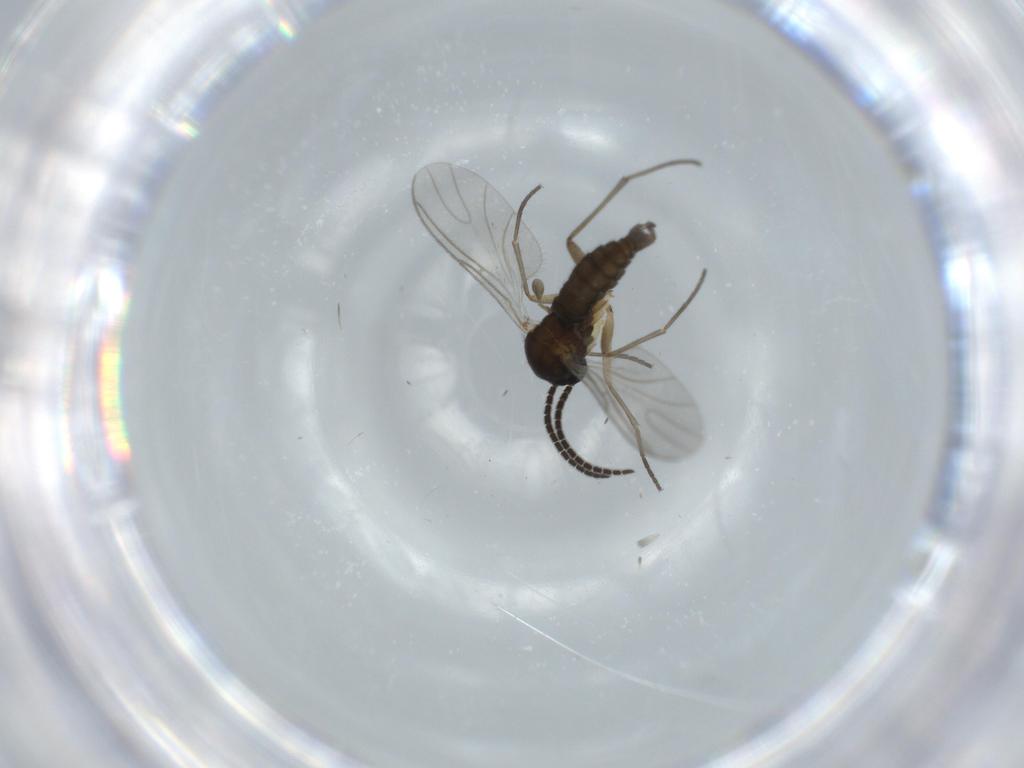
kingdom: Animalia
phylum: Arthropoda
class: Insecta
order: Diptera
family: Sciaridae
